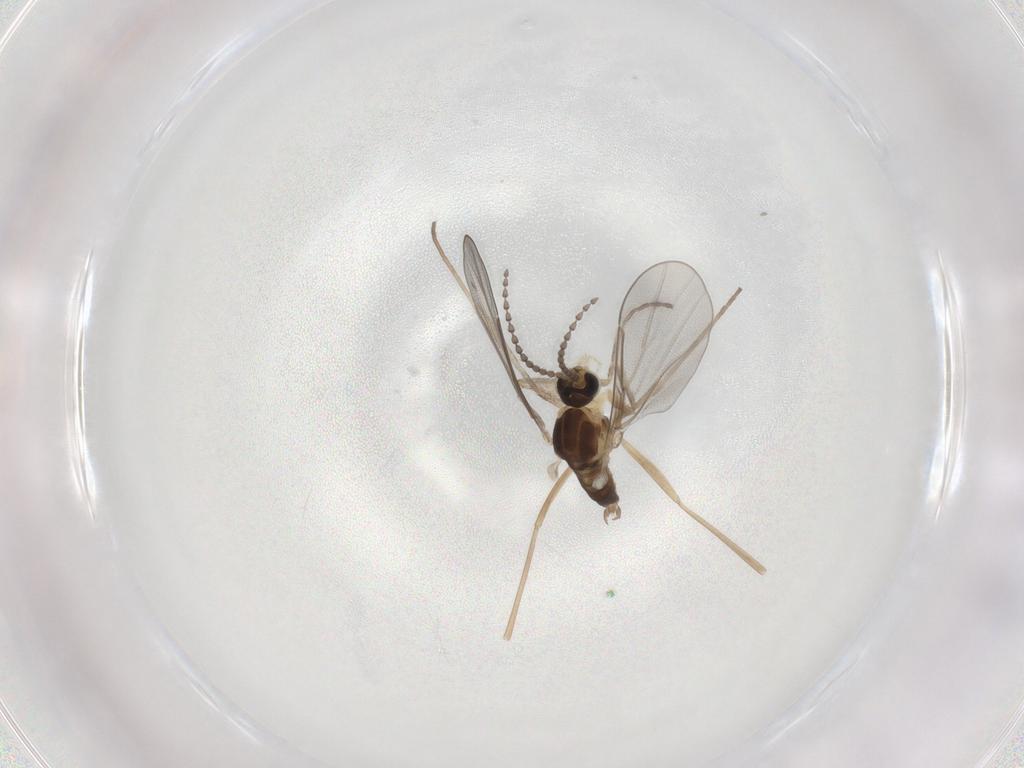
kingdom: Animalia
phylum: Arthropoda
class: Insecta
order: Diptera
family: Cecidomyiidae
